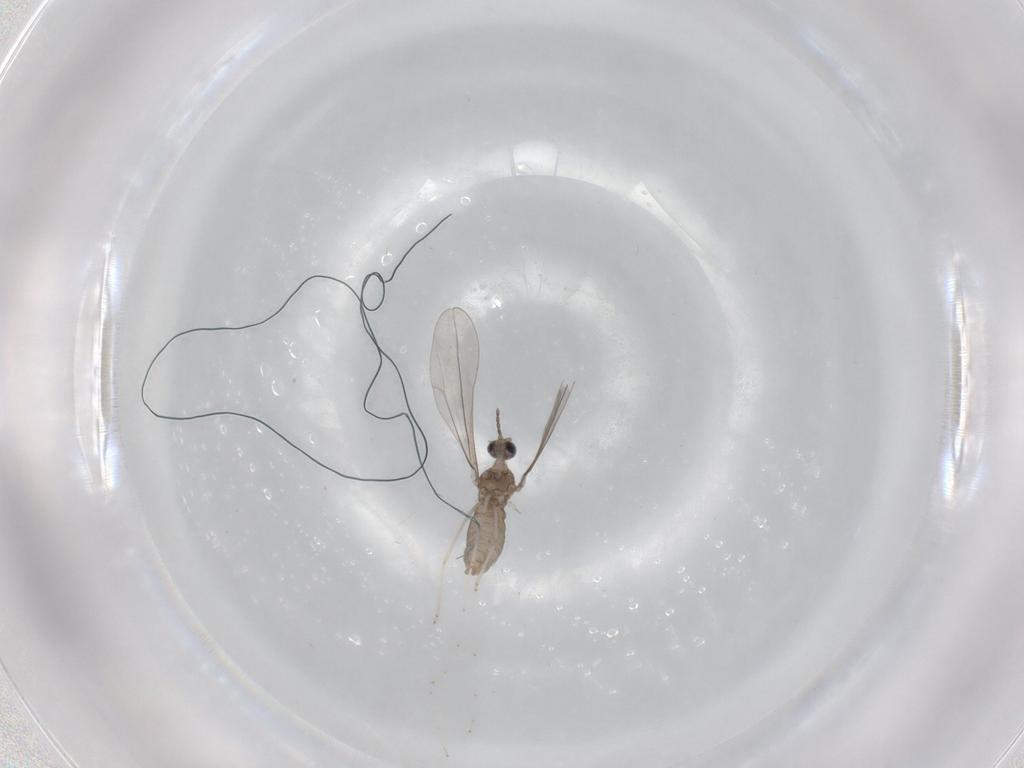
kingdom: Animalia
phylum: Arthropoda
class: Insecta
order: Diptera
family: Cecidomyiidae
